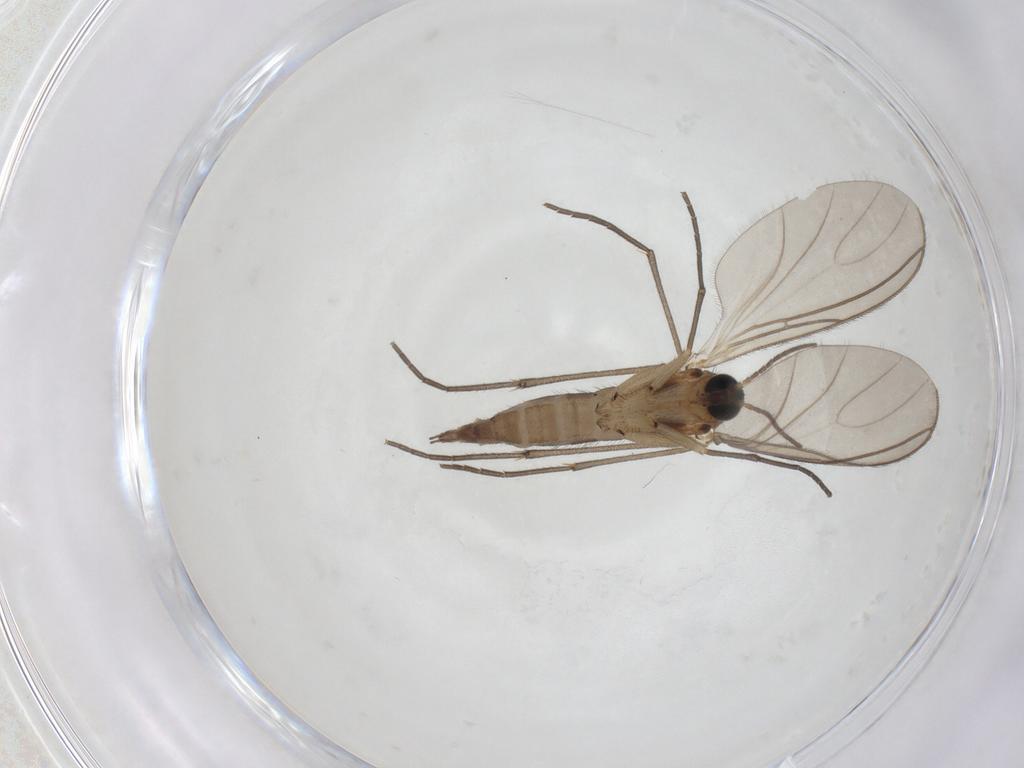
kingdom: Animalia
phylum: Arthropoda
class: Insecta
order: Diptera
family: Sciaridae
